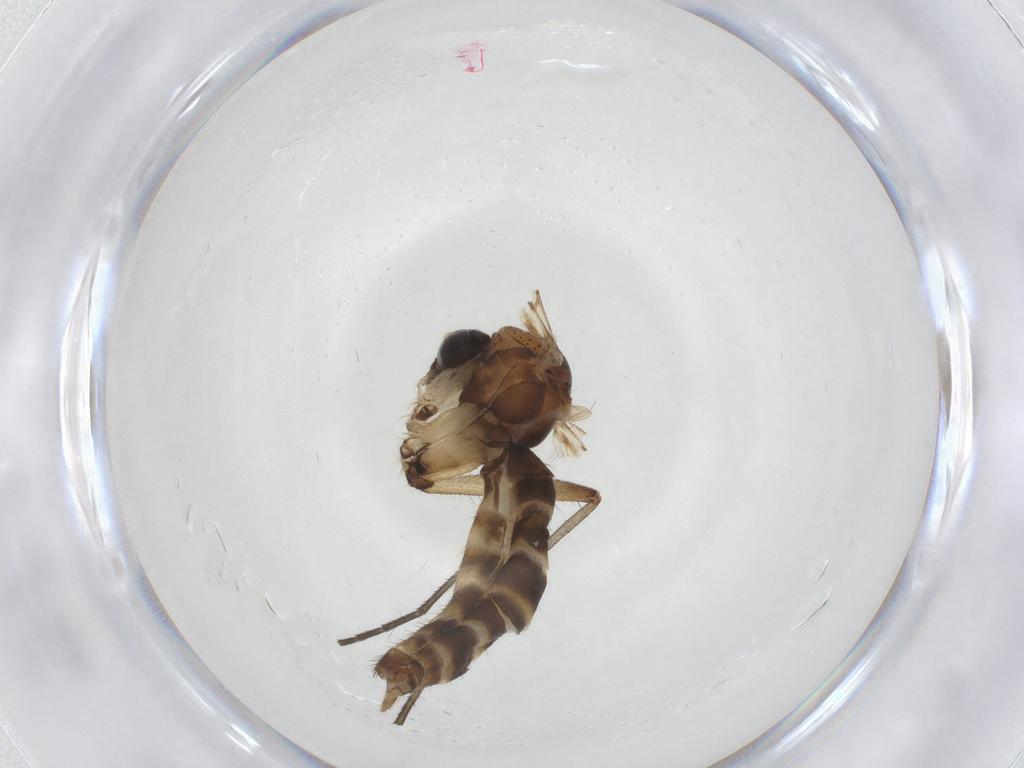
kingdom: Animalia
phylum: Arthropoda
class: Insecta
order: Diptera
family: Mycetophilidae
